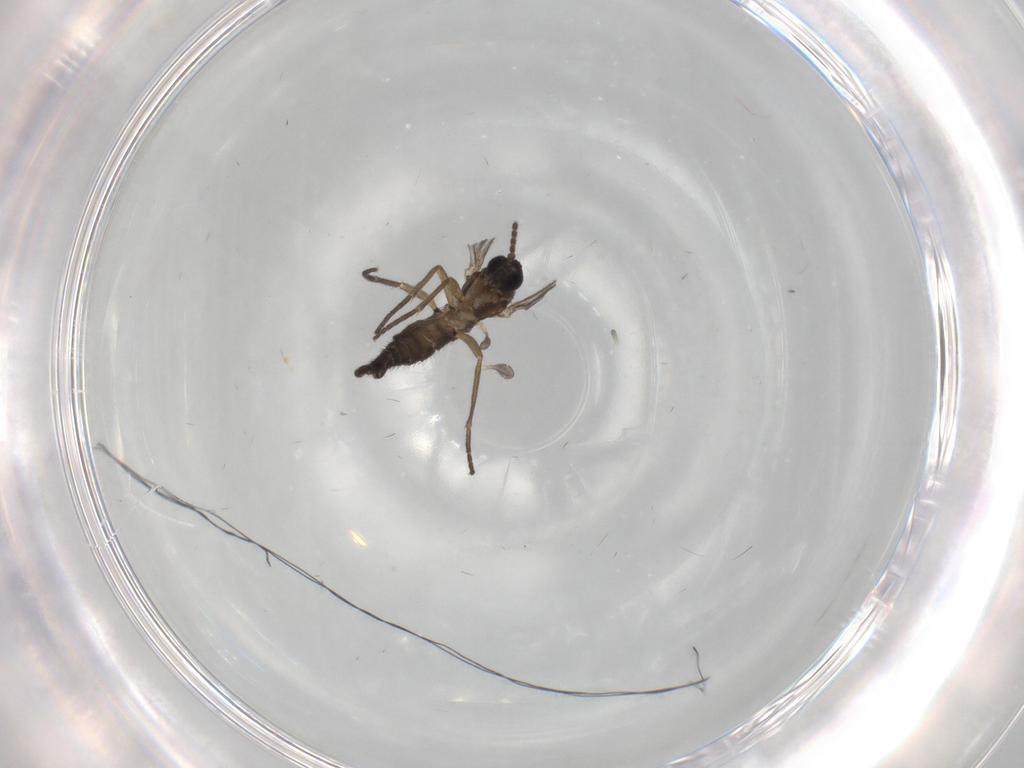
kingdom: Animalia
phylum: Arthropoda
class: Insecta
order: Diptera
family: Sciaridae
